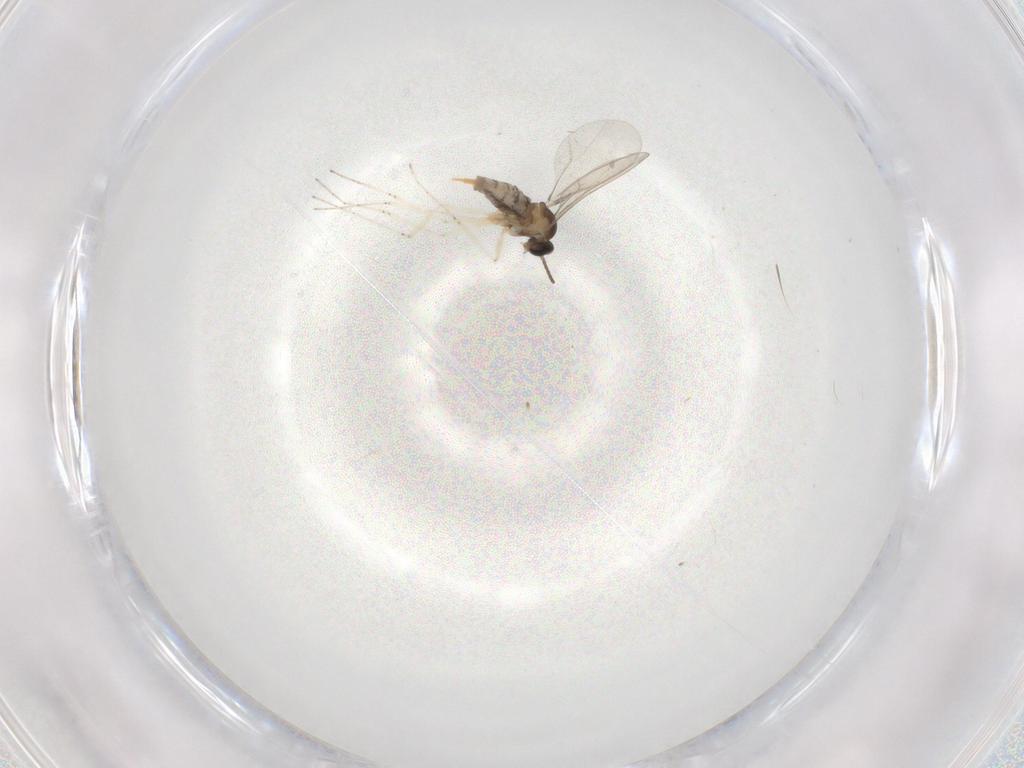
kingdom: Animalia
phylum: Arthropoda
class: Insecta
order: Diptera
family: Cecidomyiidae
